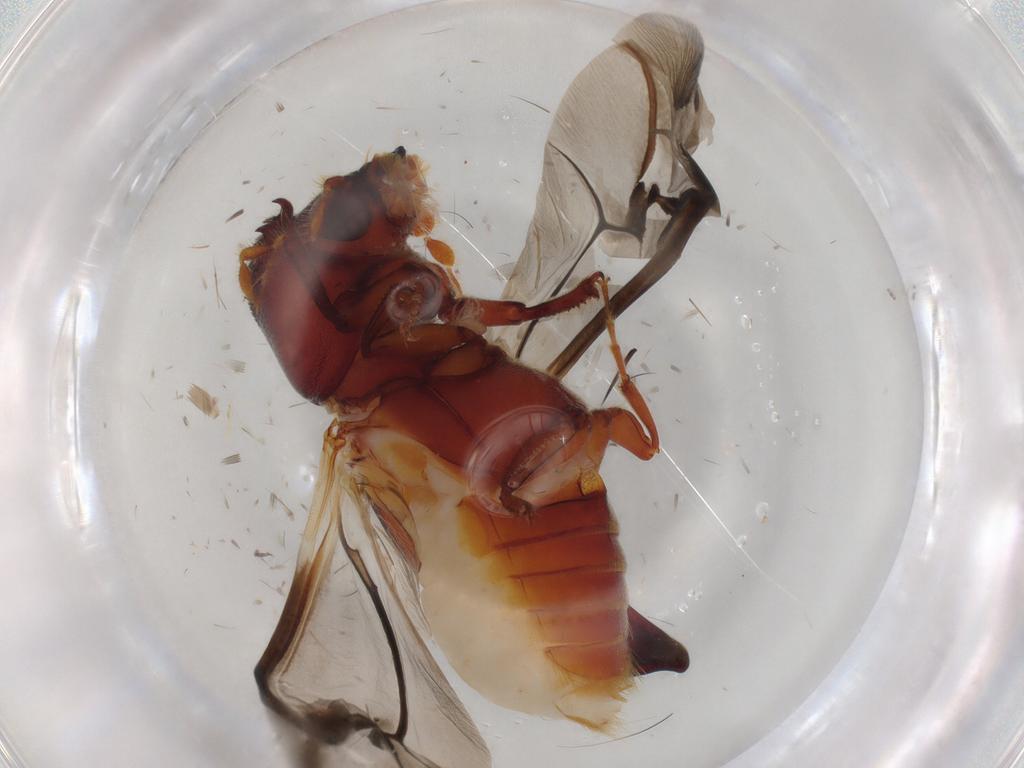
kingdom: Animalia
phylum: Arthropoda
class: Insecta
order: Coleoptera
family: Bostrichidae
